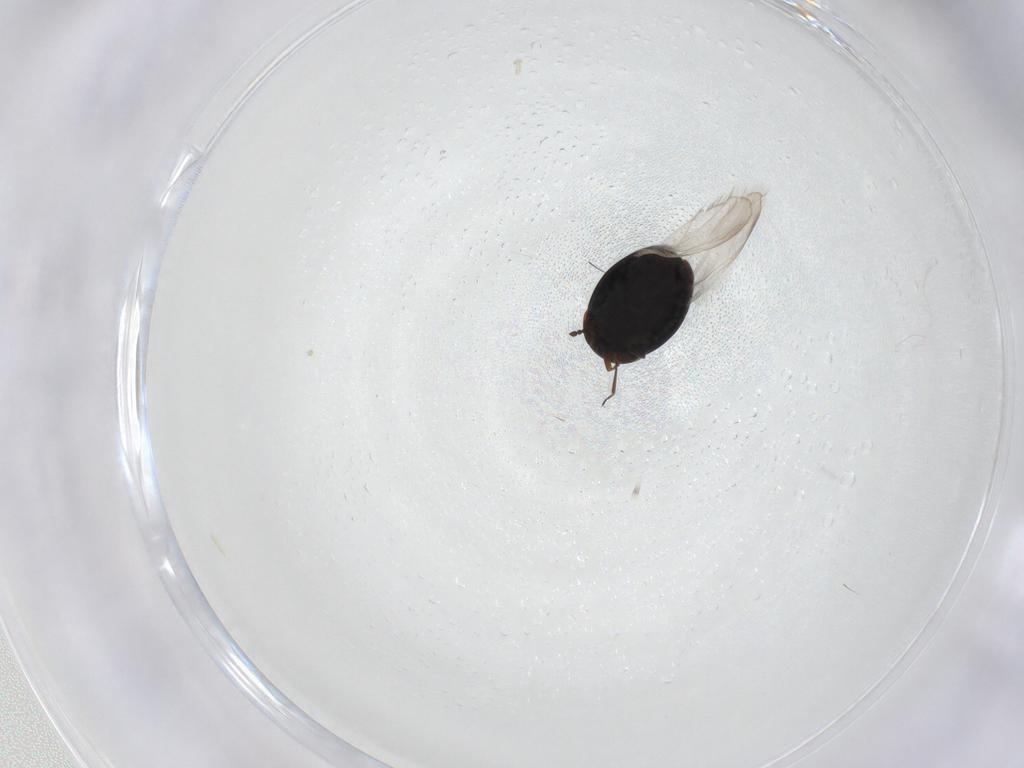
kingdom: Animalia
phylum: Arthropoda
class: Insecta
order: Coleoptera
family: Corylophidae
